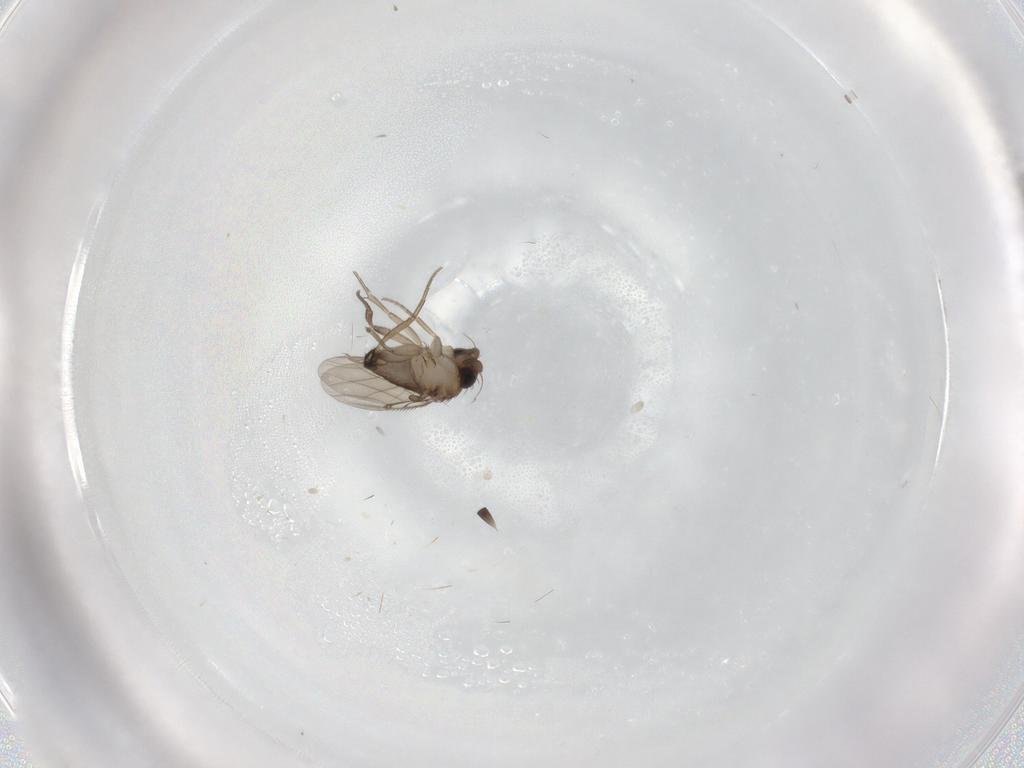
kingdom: Animalia
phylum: Arthropoda
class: Insecta
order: Diptera
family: Phoridae
